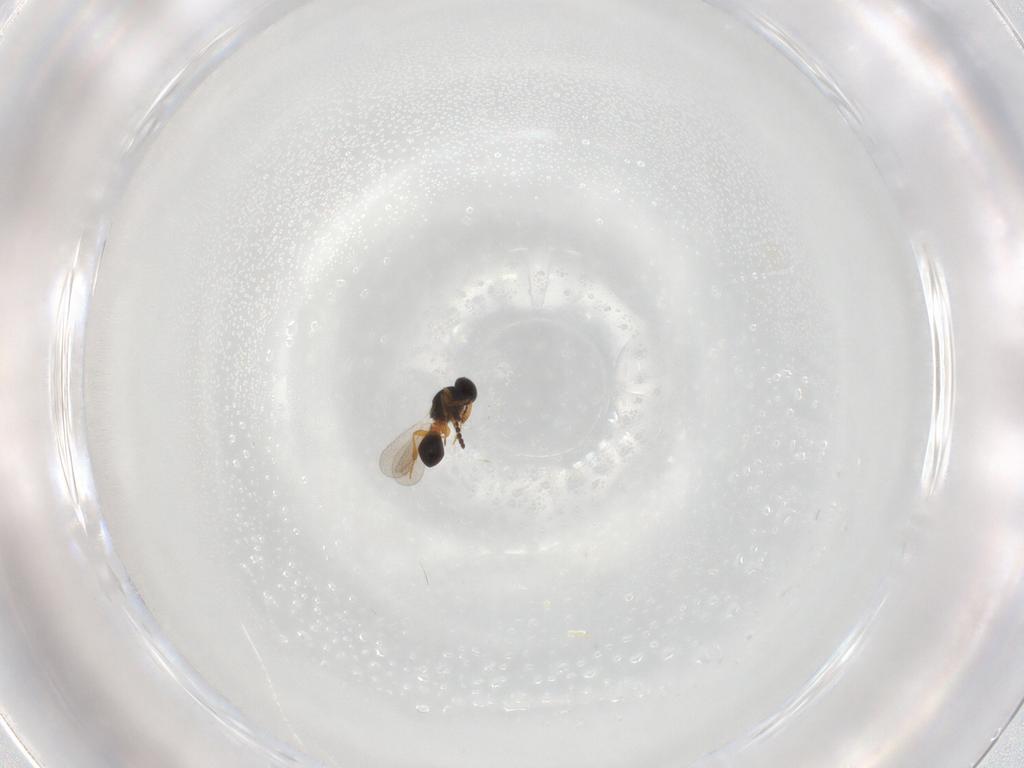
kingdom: Animalia
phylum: Arthropoda
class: Insecta
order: Hymenoptera
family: Platygastridae
